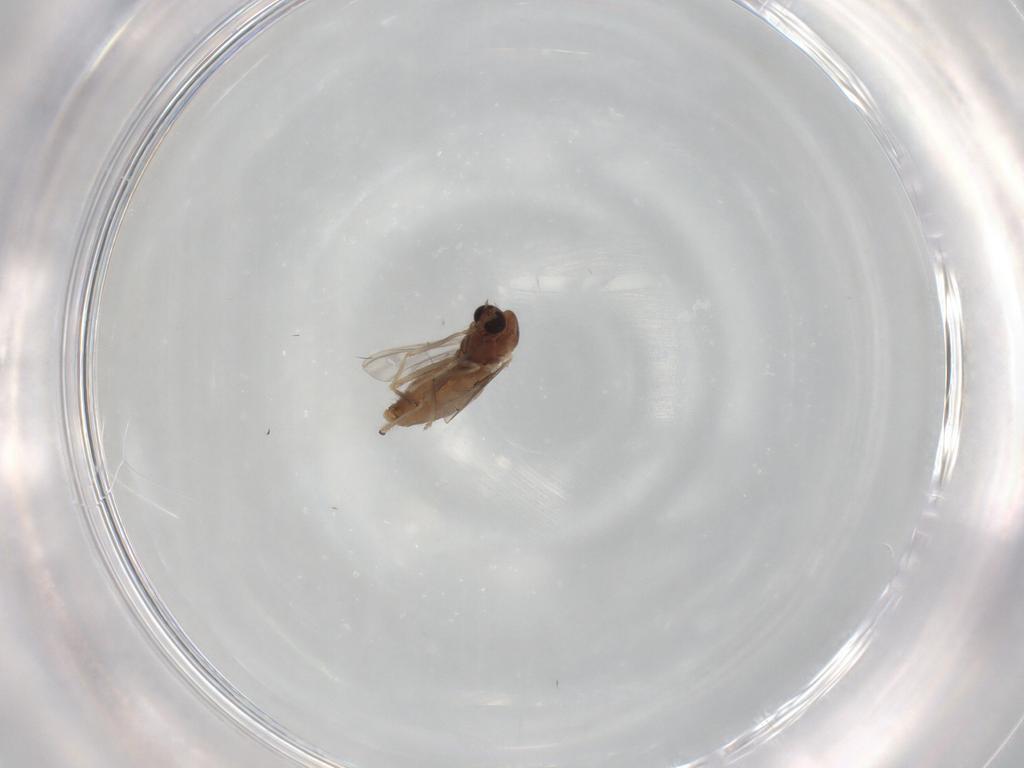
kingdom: Animalia
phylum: Arthropoda
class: Insecta
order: Diptera
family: Chironomidae
